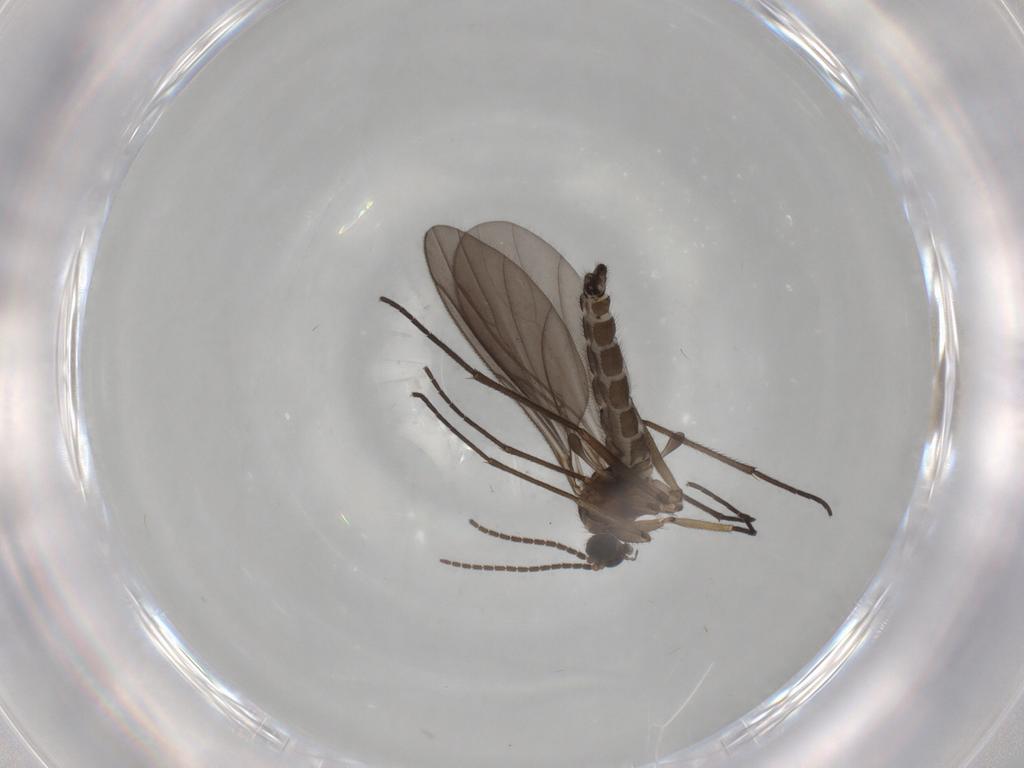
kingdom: Animalia
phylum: Arthropoda
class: Insecta
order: Diptera
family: Sciaridae
